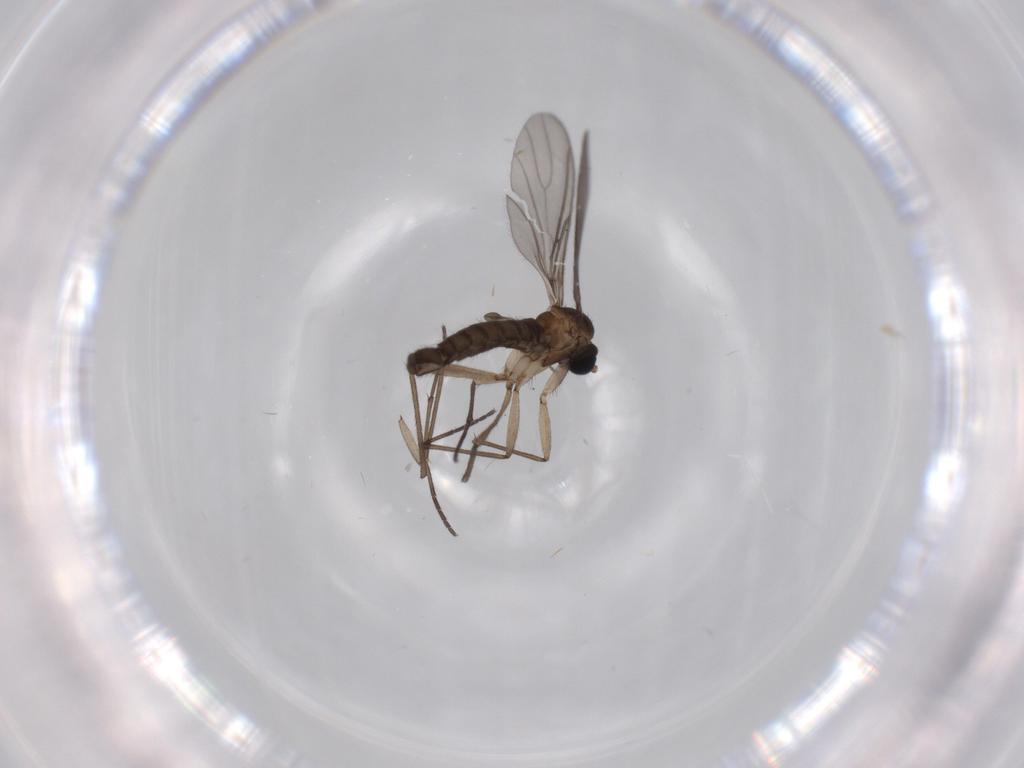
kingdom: Animalia
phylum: Arthropoda
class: Insecta
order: Diptera
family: Sciaridae
